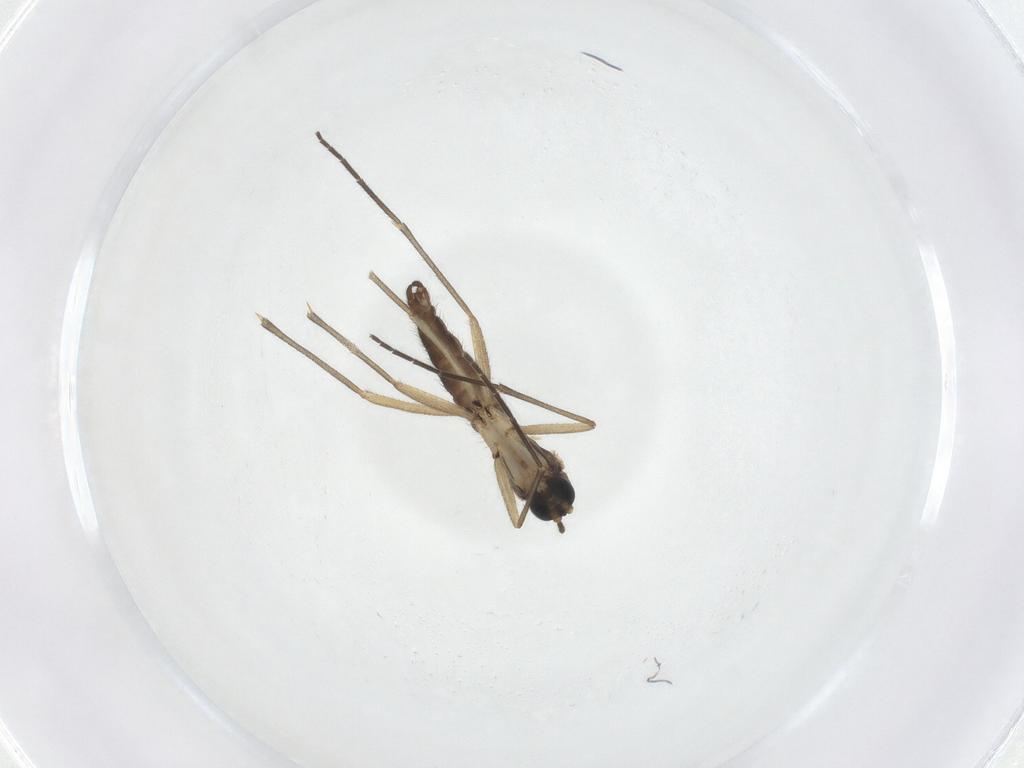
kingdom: Animalia
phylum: Arthropoda
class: Insecta
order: Diptera
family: Sciaridae
